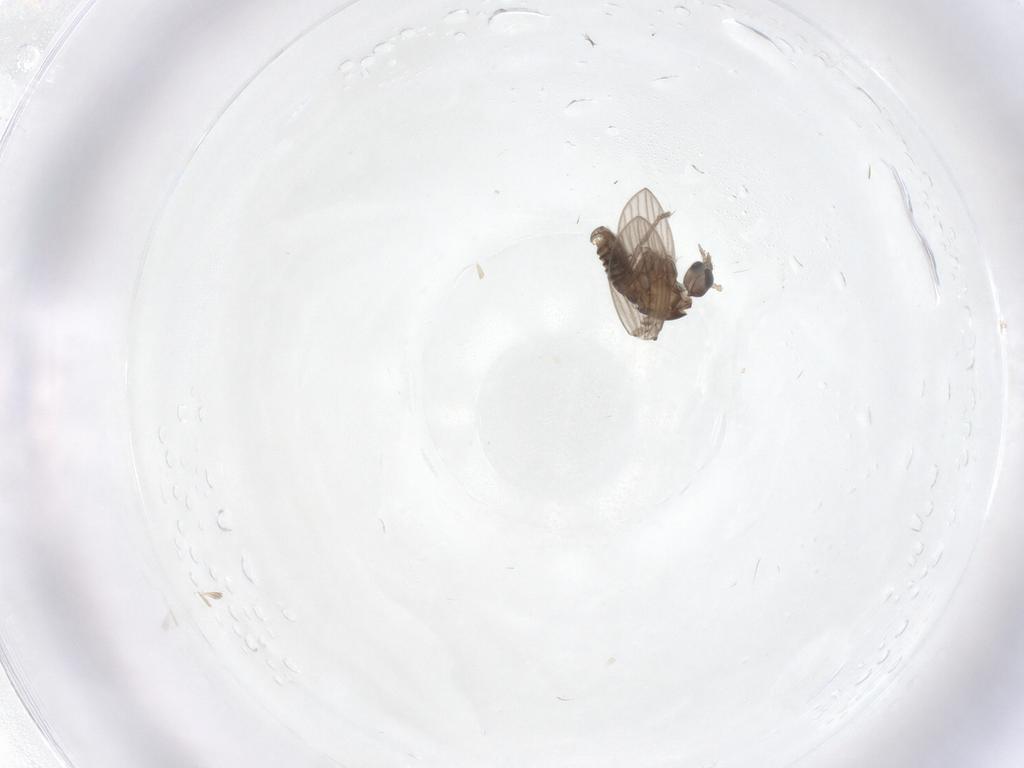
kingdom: Animalia
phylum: Arthropoda
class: Insecta
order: Diptera
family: Psychodidae
